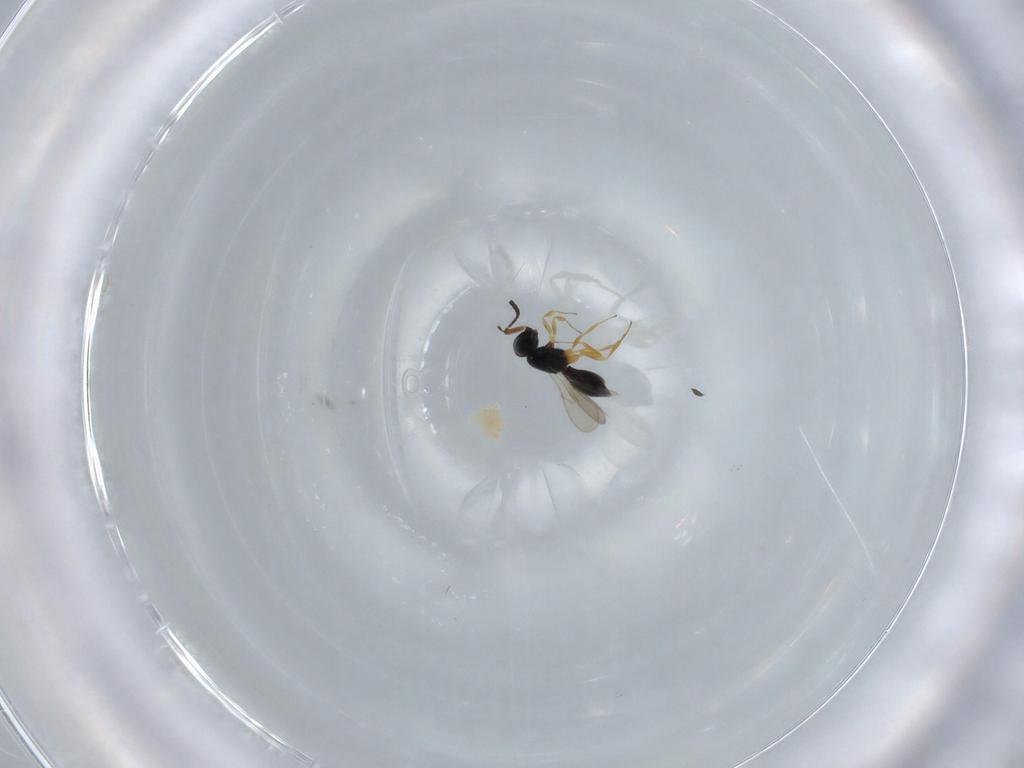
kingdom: Animalia
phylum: Arthropoda
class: Insecta
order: Hymenoptera
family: Scelionidae
